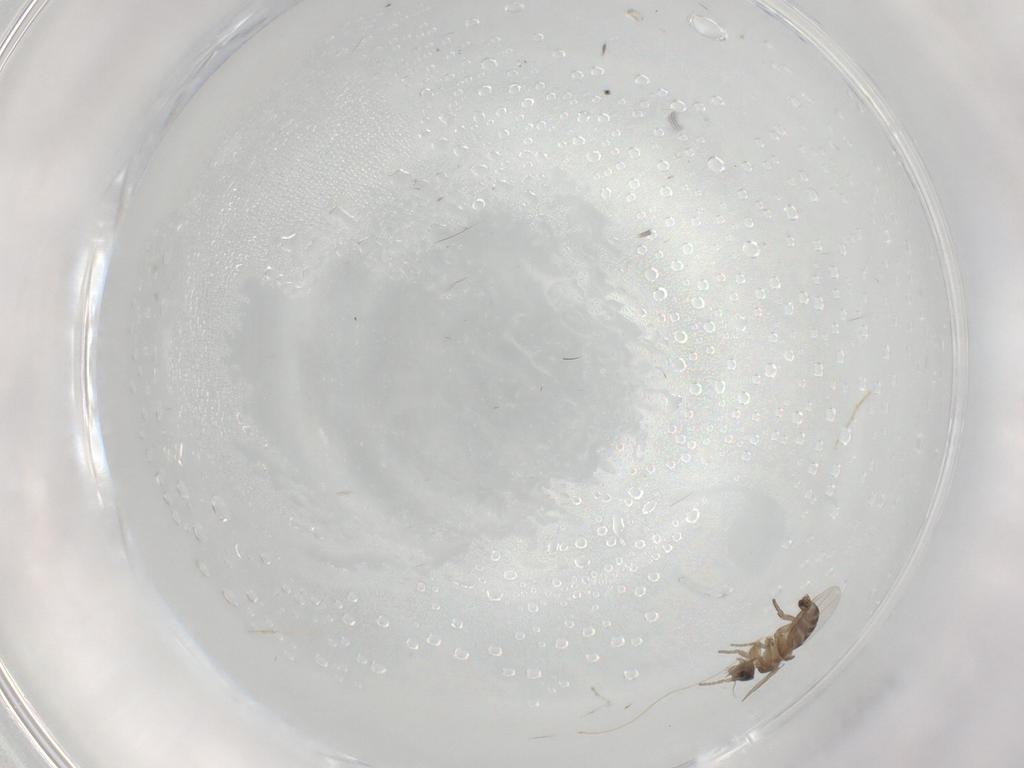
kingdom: Animalia
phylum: Arthropoda
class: Insecta
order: Diptera
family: Phoridae
